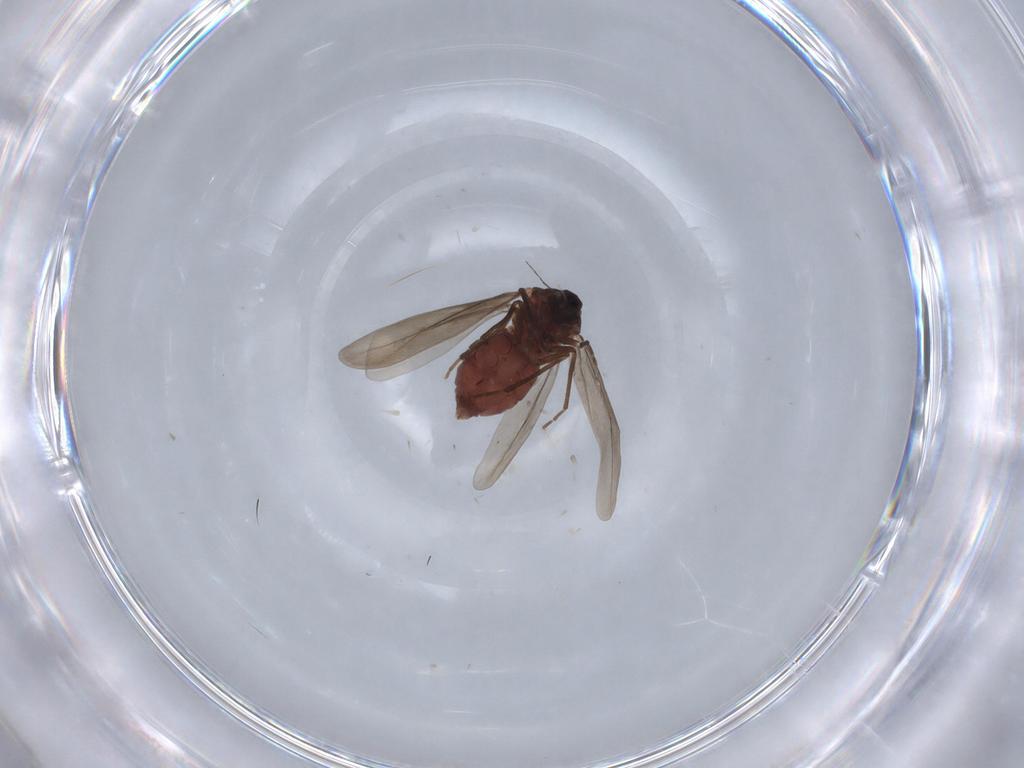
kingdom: Animalia
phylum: Arthropoda
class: Insecta
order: Hemiptera
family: Aleyrodidae
